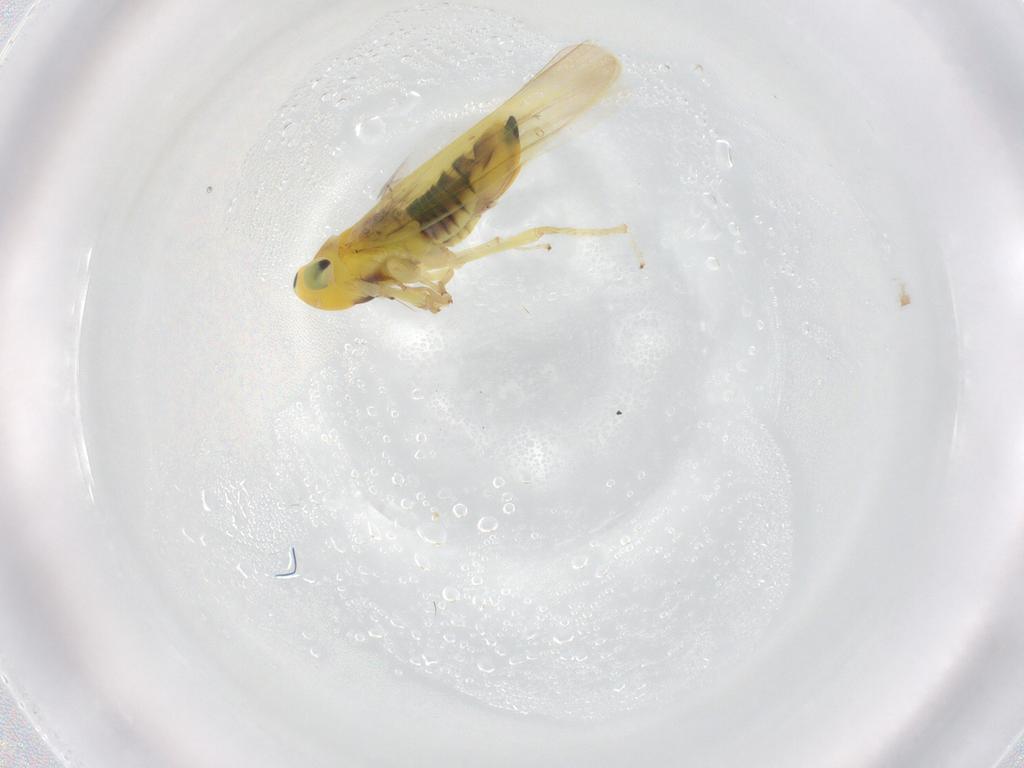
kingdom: Animalia
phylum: Arthropoda
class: Insecta
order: Hemiptera
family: Cicadellidae
